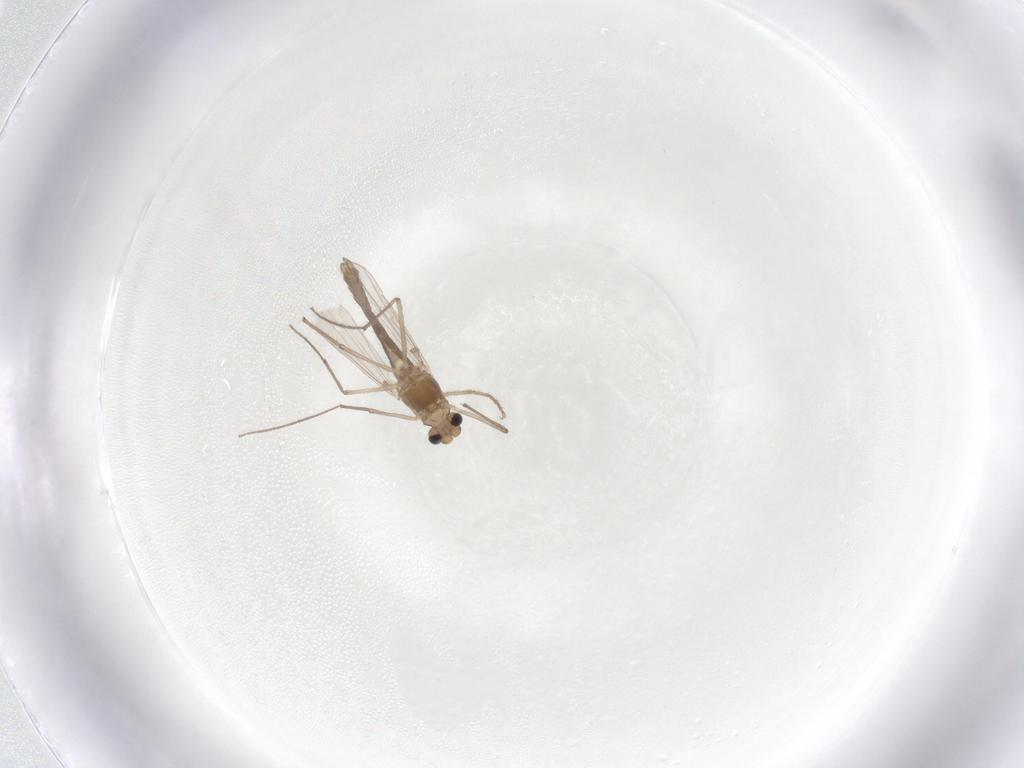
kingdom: Animalia
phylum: Arthropoda
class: Insecta
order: Diptera
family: Chironomidae
